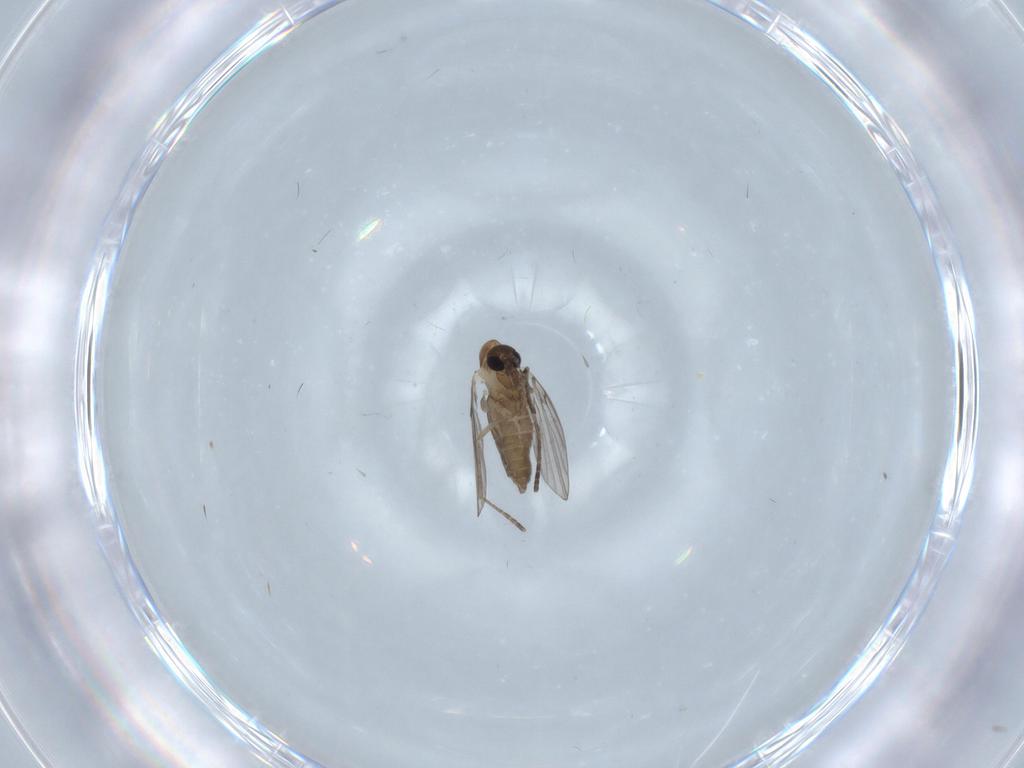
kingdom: Animalia
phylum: Arthropoda
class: Insecta
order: Diptera
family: Psychodidae
